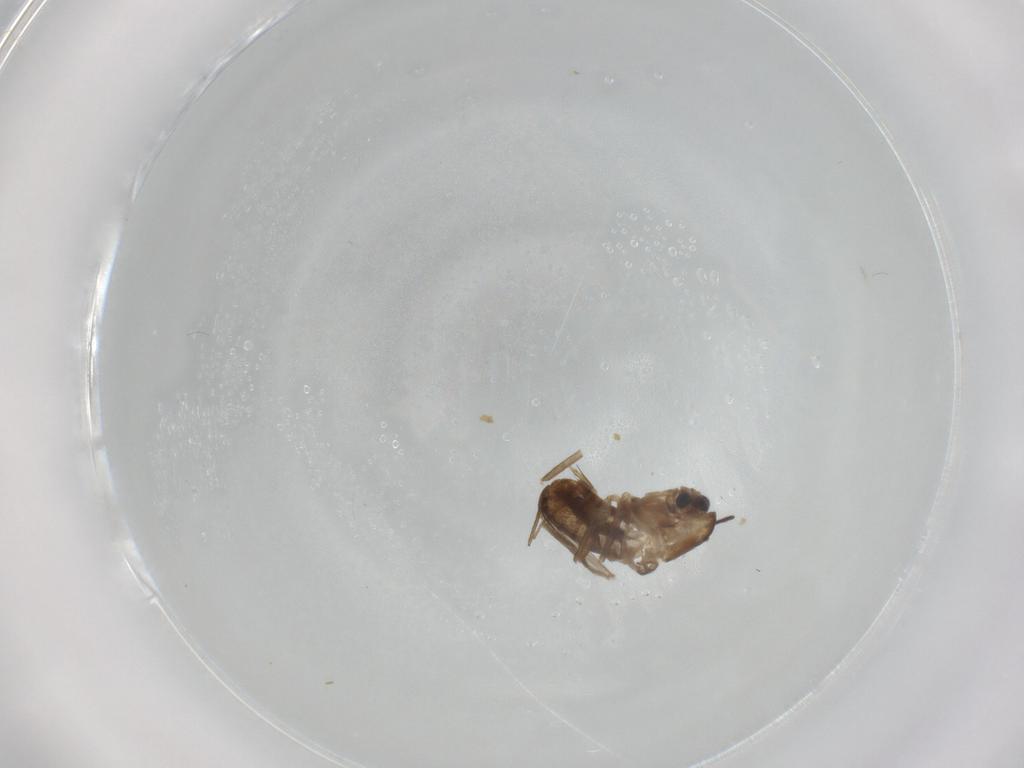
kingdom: Animalia
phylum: Arthropoda
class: Insecta
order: Diptera
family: Chironomidae
